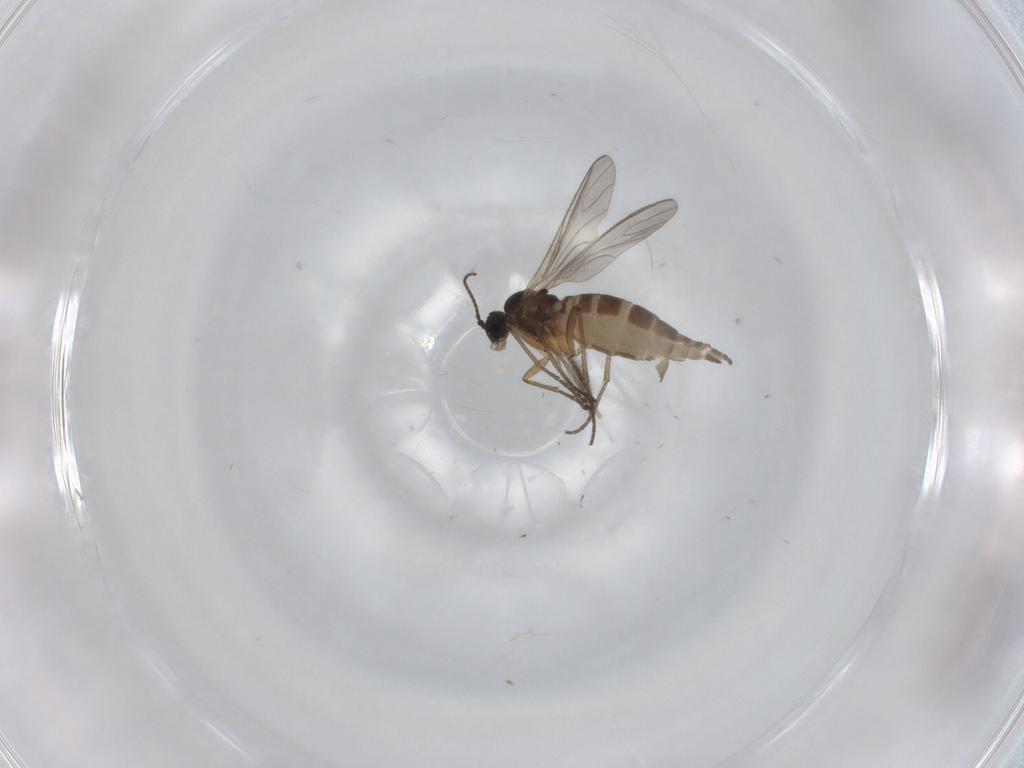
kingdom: Animalia
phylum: Arthropoda
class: Insecta
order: Diptera
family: Sciaridae
